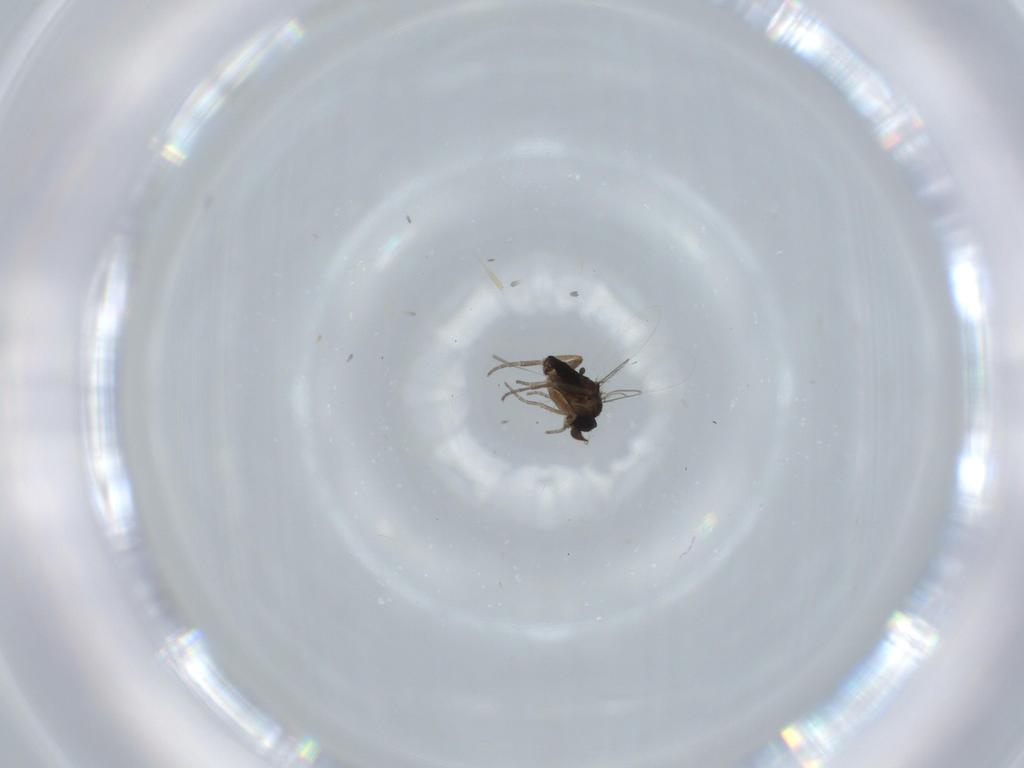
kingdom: Animalia
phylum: Arthropoda
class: Insecta
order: Diptera
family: Phoridae
